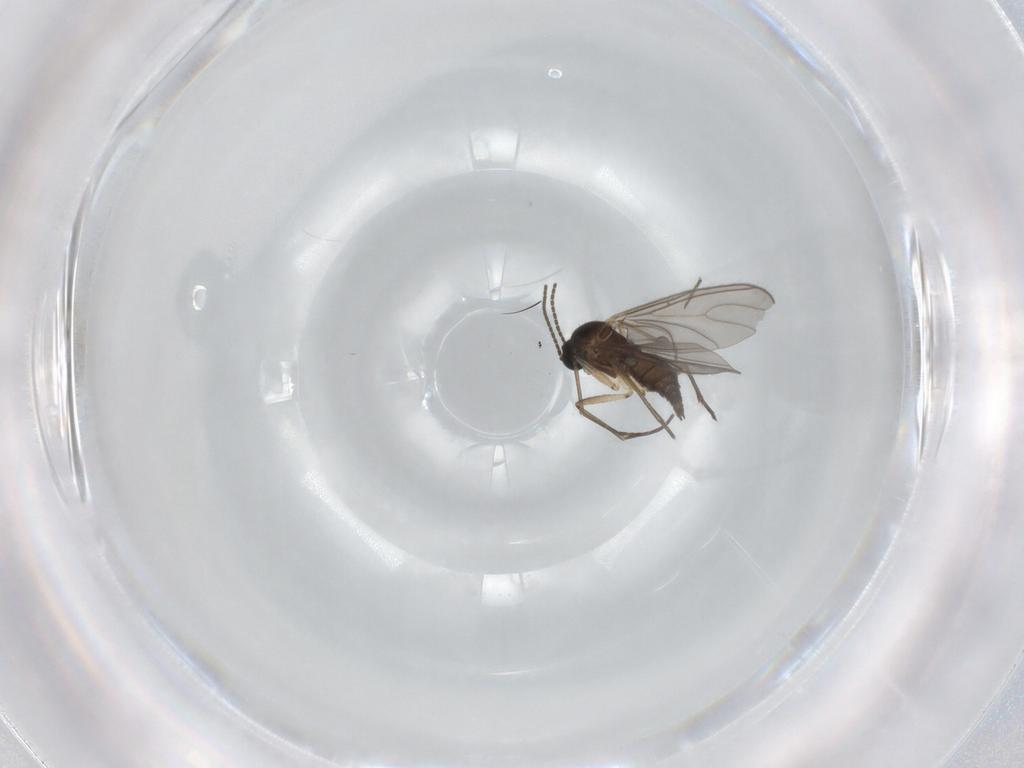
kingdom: Animalia
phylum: Arthropoda
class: Insecta
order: Diptera
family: Sciaridae
